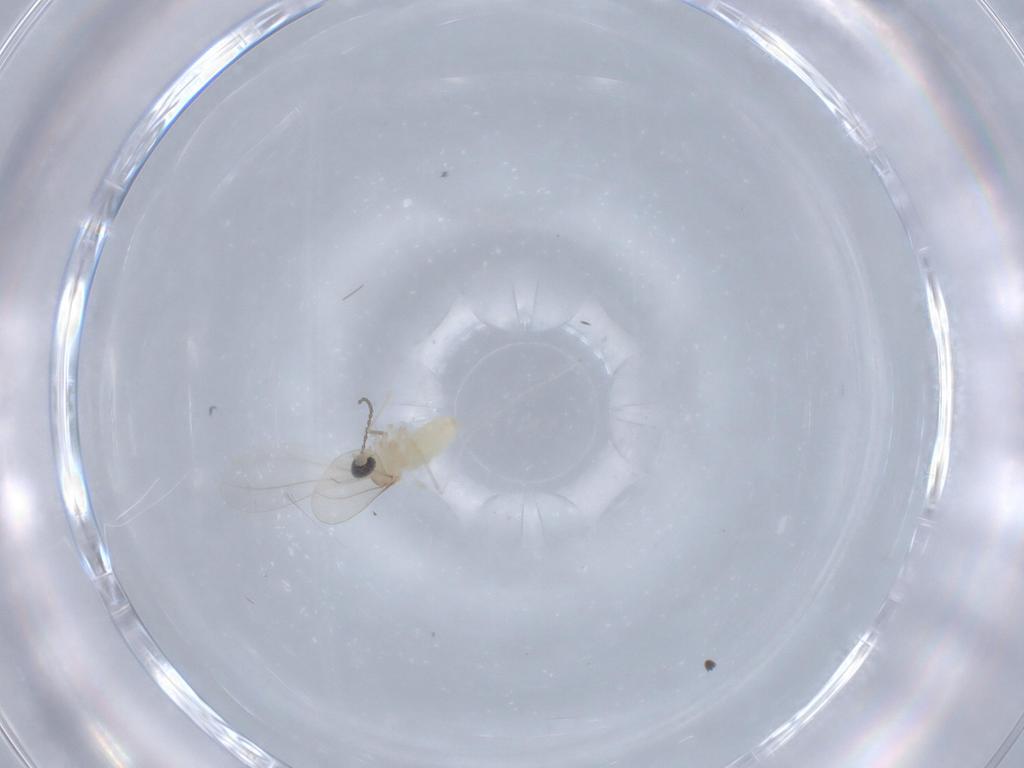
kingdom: Animalia
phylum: Arthropoda
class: Insecta
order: Diptera
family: Cecidomyiidae
